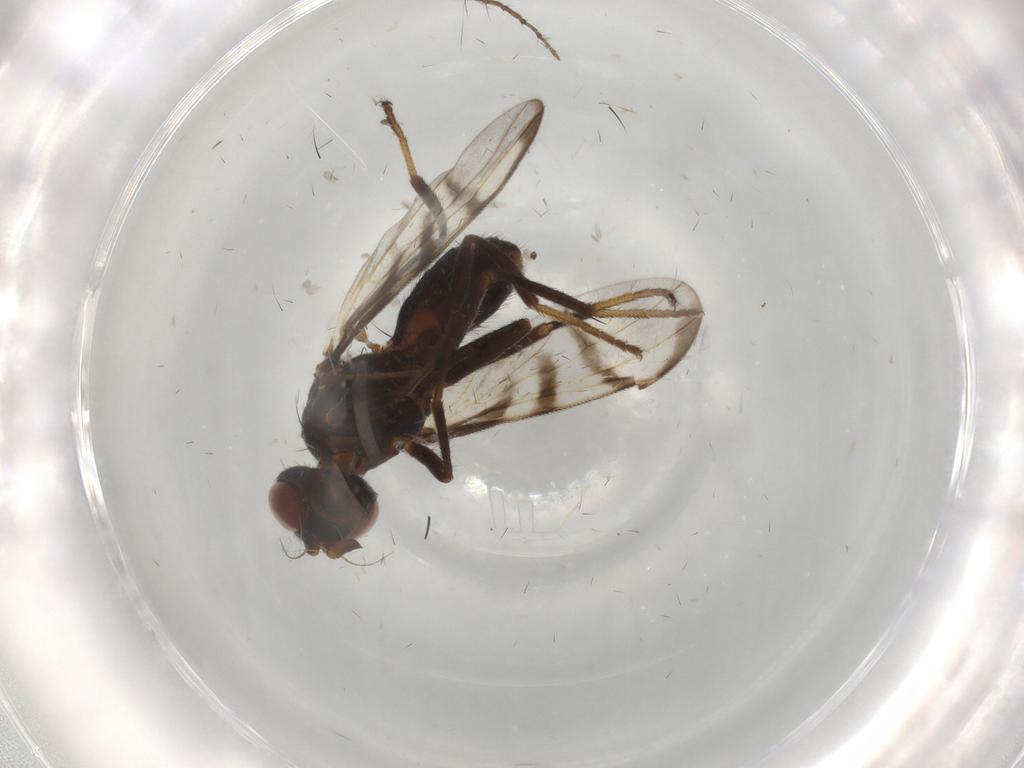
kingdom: Animalia
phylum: Arthropoda
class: Insecta
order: Diptera
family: Platystomatidae
